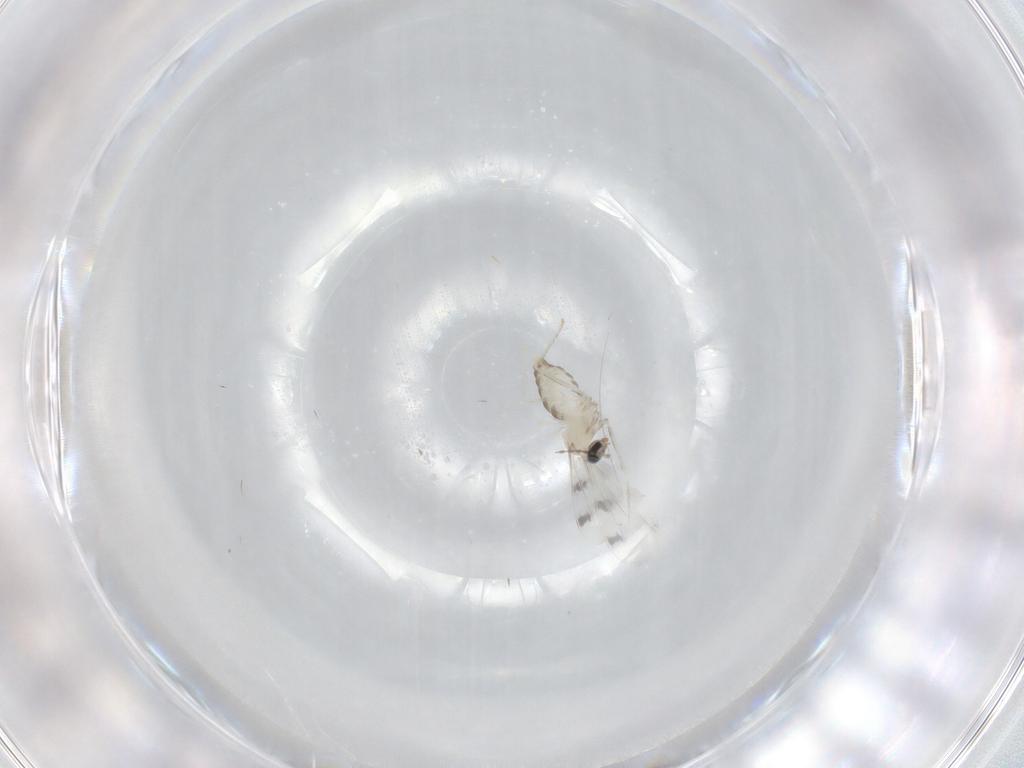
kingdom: Animalia
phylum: Arthropoda
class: Insecta
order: Diptera
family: Cecidomyiidae
